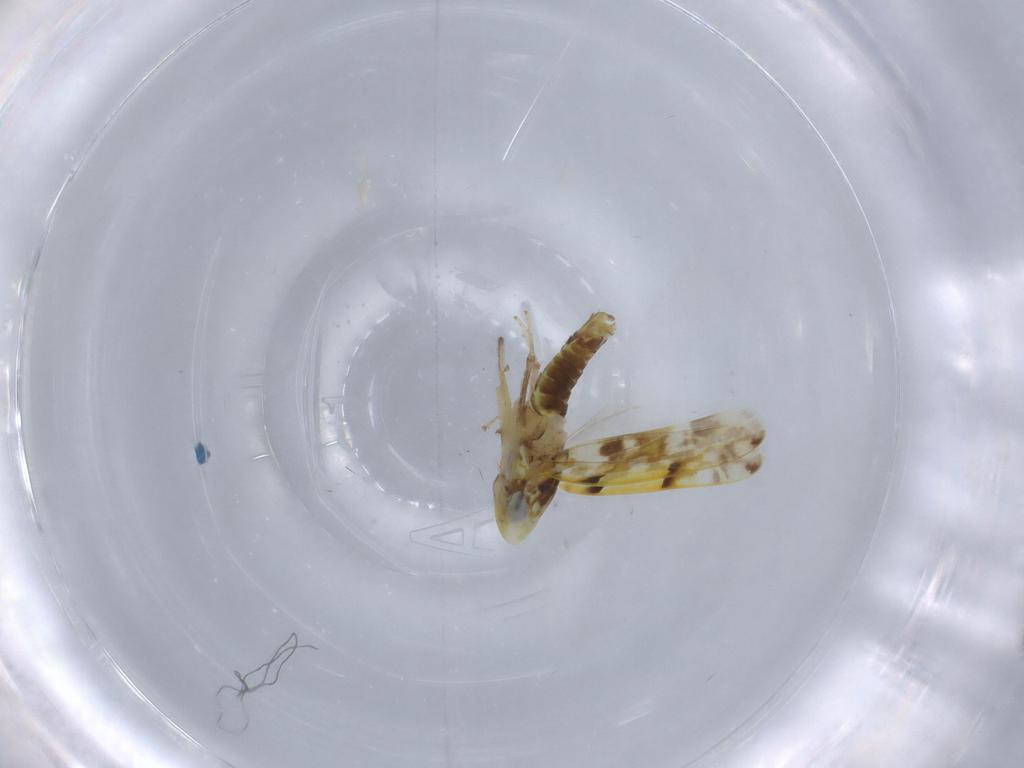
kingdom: Animalia
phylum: Arthropoda
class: Insecta
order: Hemiptera
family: Cicadellidae
